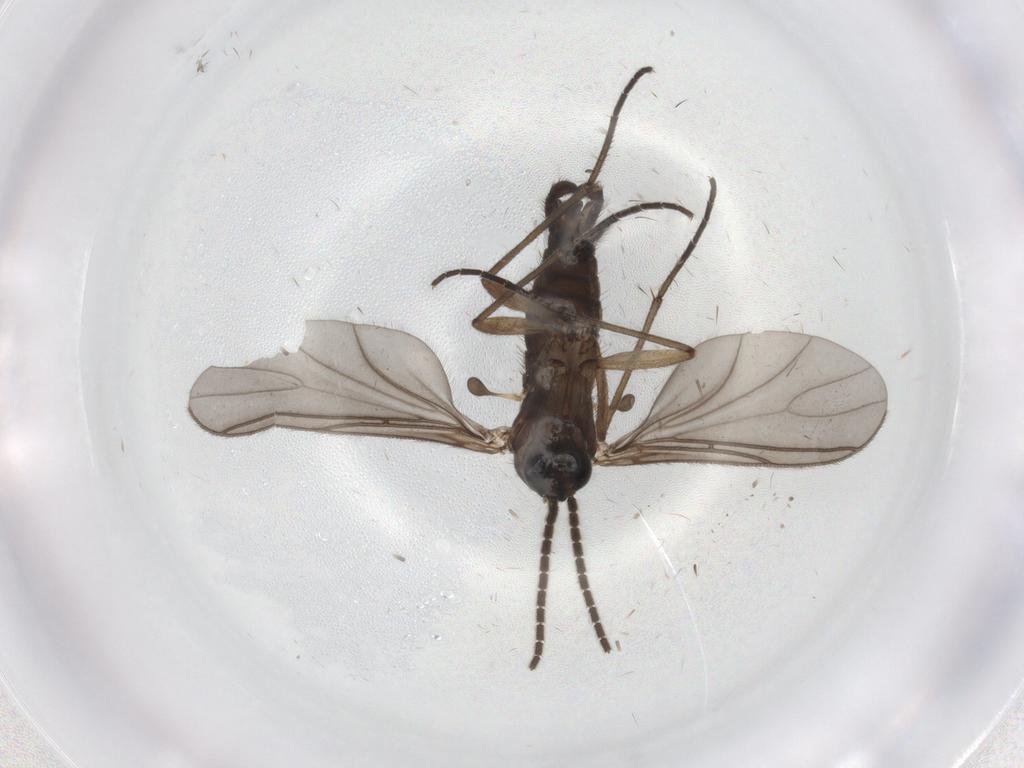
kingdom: Animalia
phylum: Arthropoda
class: Insecta
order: Diptera
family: Sciaridae
